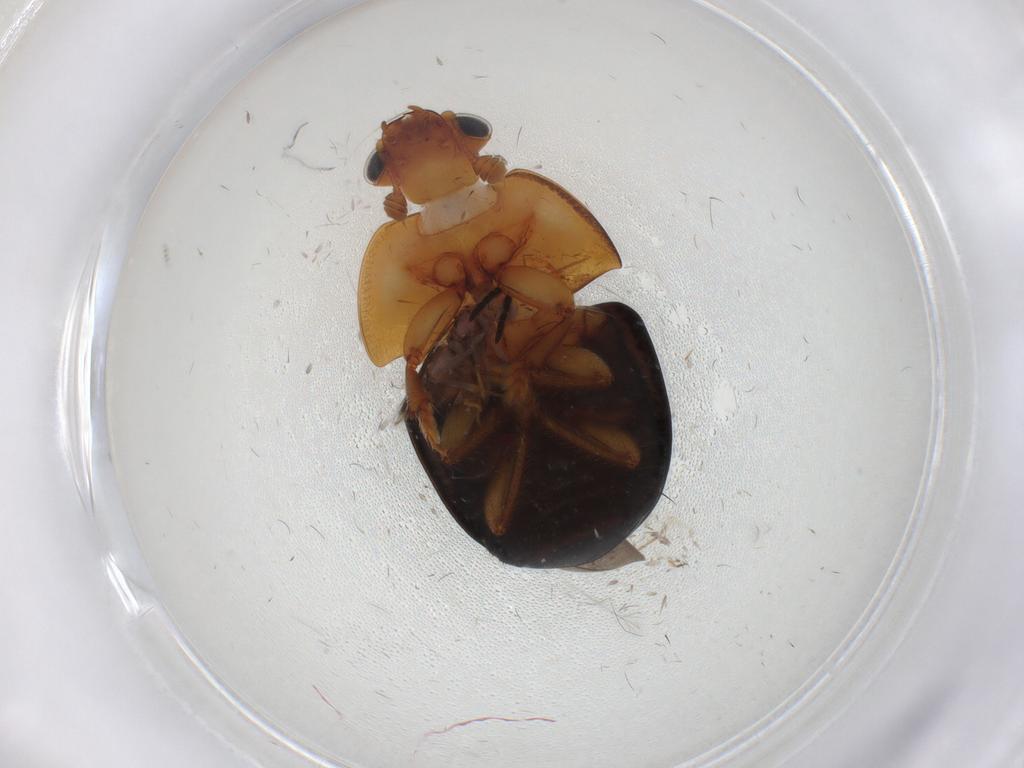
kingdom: Animalia
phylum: Arthropoda
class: Insecta
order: Coleoptera
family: Nitidulidae
